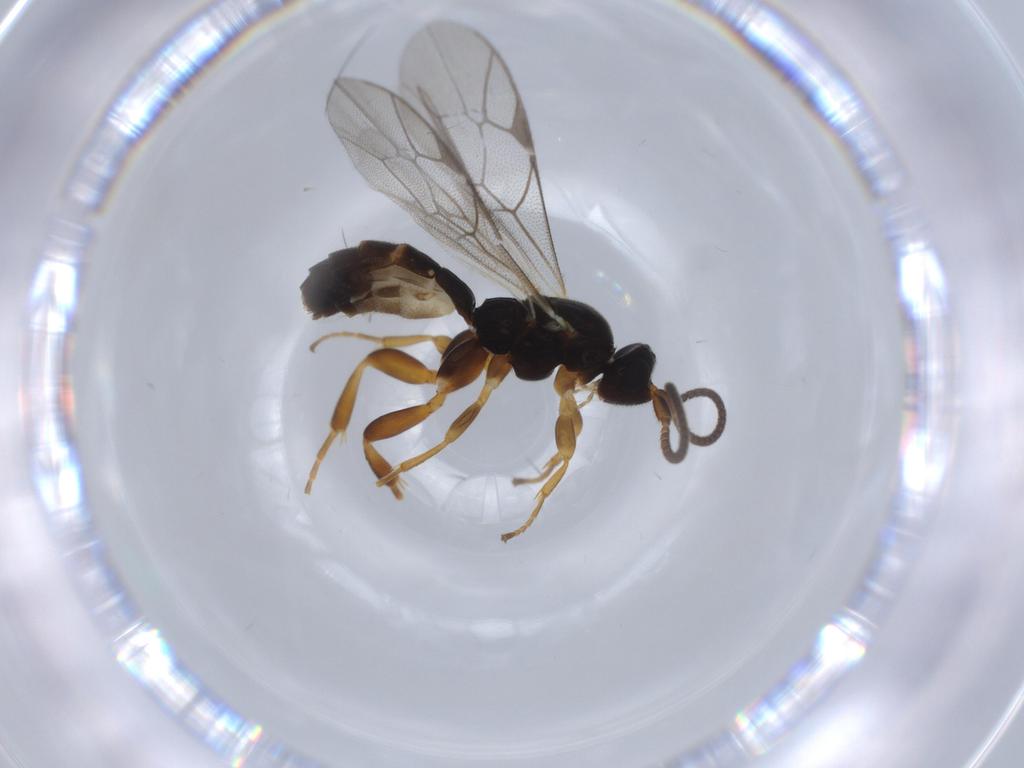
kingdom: Animalia
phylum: Arthropoda
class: Insecta
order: Hymenoptera
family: Ichneumonidae
